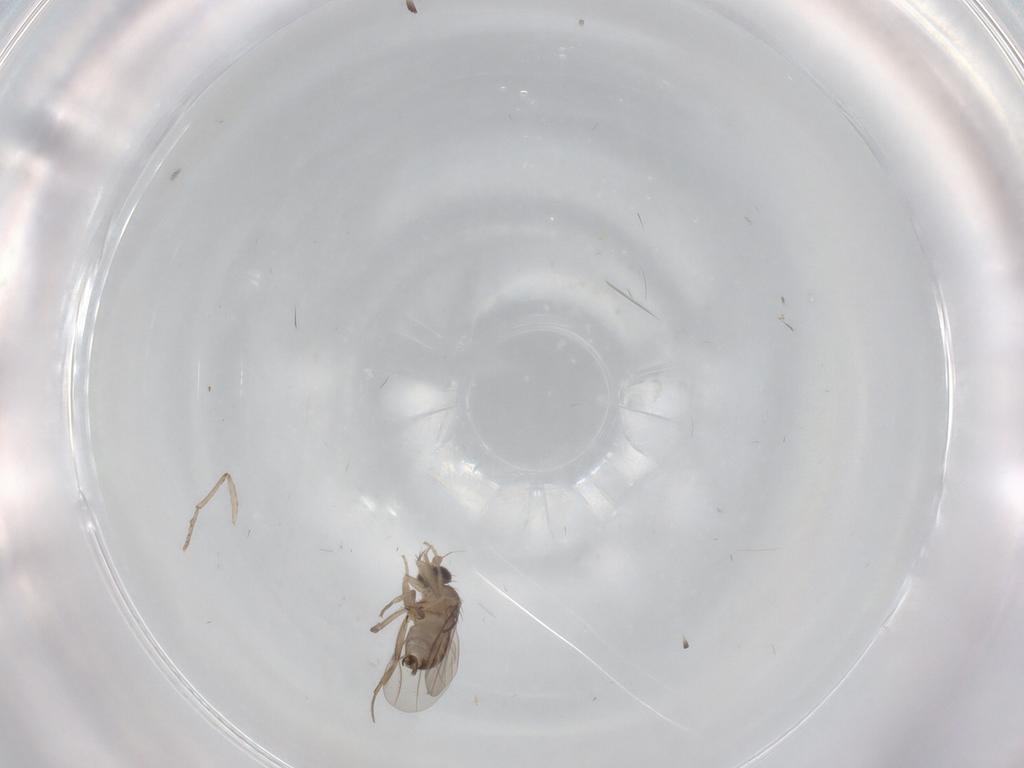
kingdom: Animalia
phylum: Arthropoda
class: Insecta
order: Diptera
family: Phoridae
